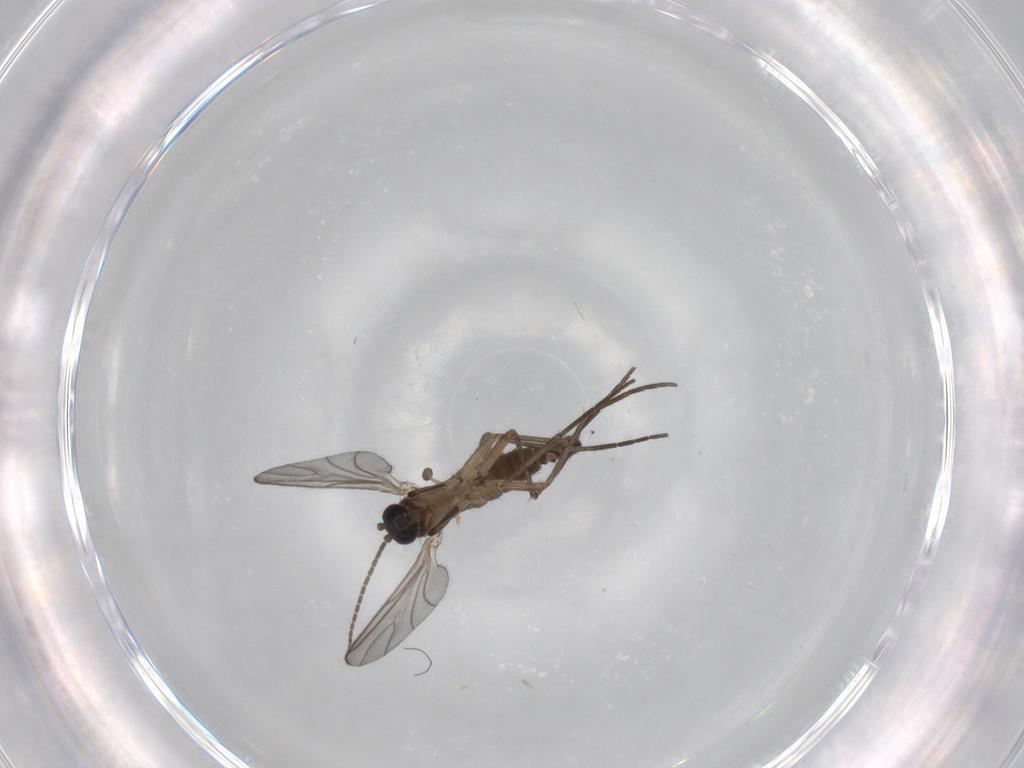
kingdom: Animalia
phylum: Arthropoda
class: Insecta
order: Diptera
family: Sciaridae
